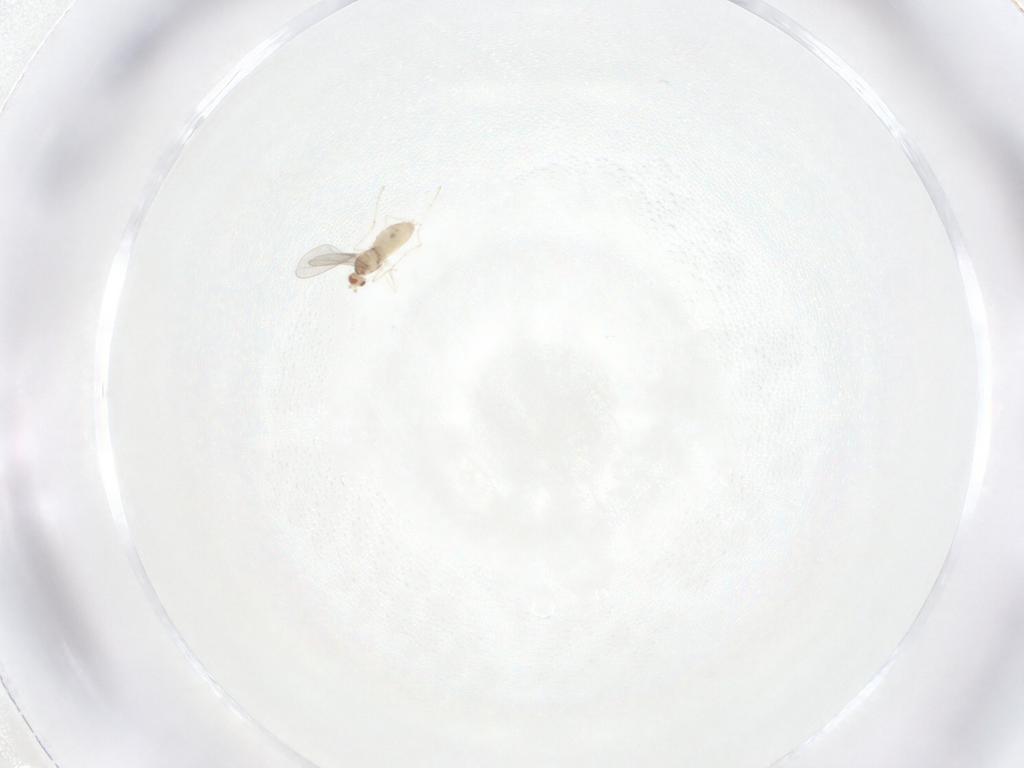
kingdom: Animalia
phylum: Arthropoda
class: Insecta
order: Diptera
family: Cecidomyiidae
